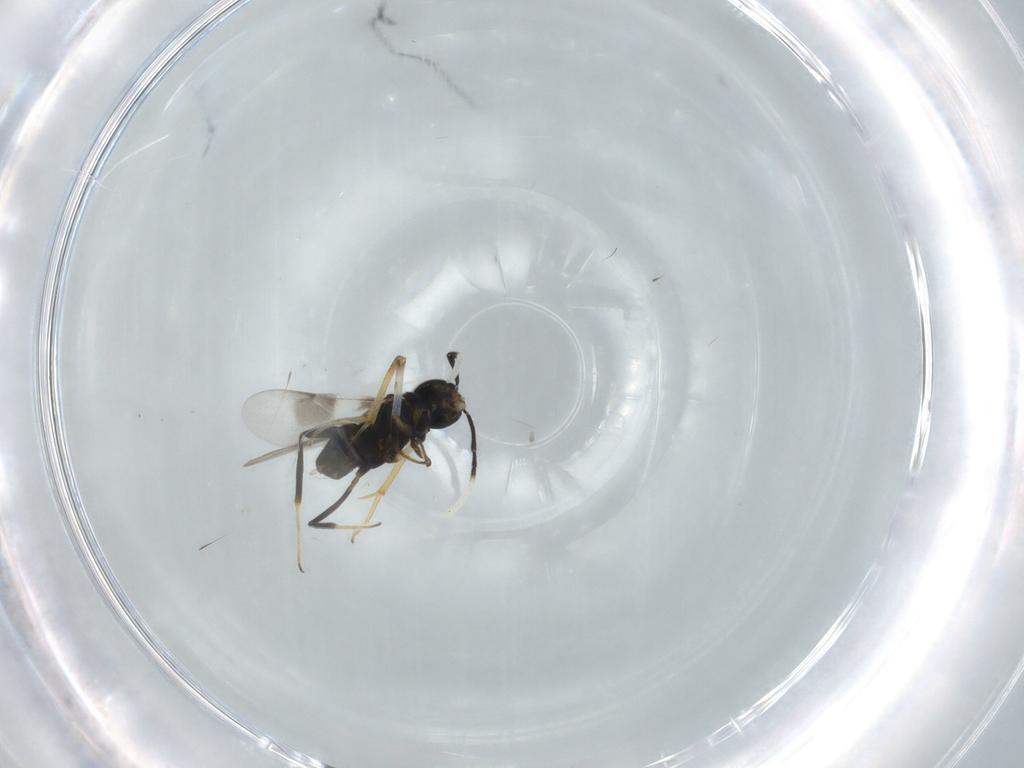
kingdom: Animalia
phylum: Arthropoda
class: Insecta
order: Hymenoptera
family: Encyrtidae
